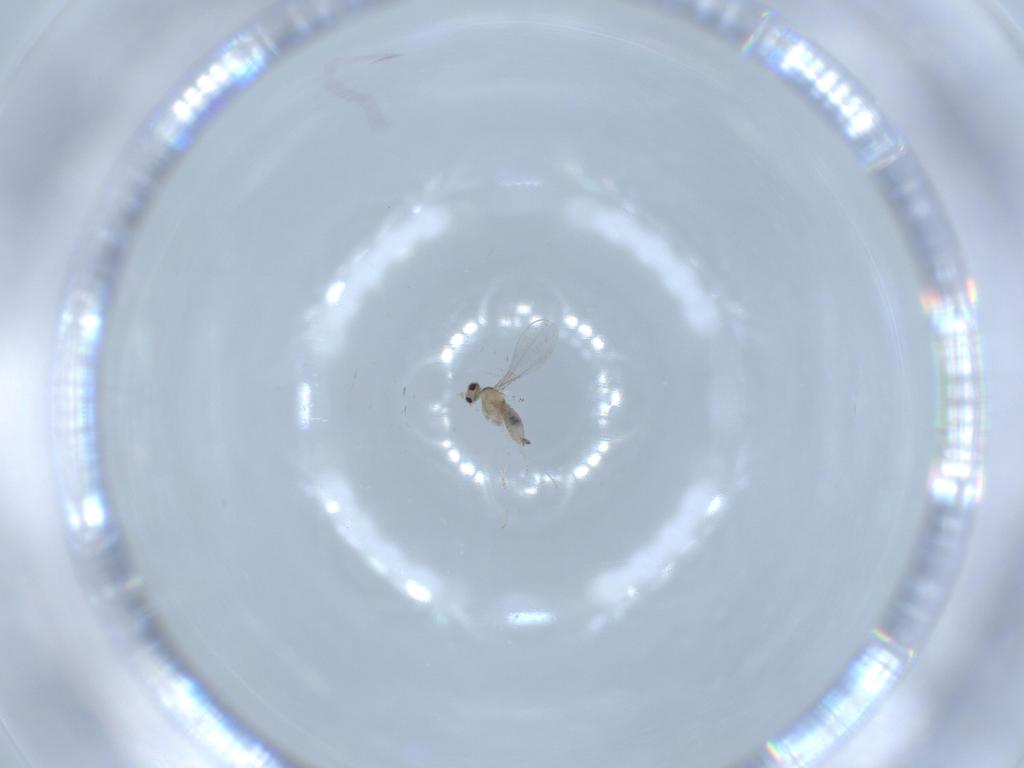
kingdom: Animalia
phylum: Arthropoda
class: Insecta
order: Diptera
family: Cecidomyiidae
